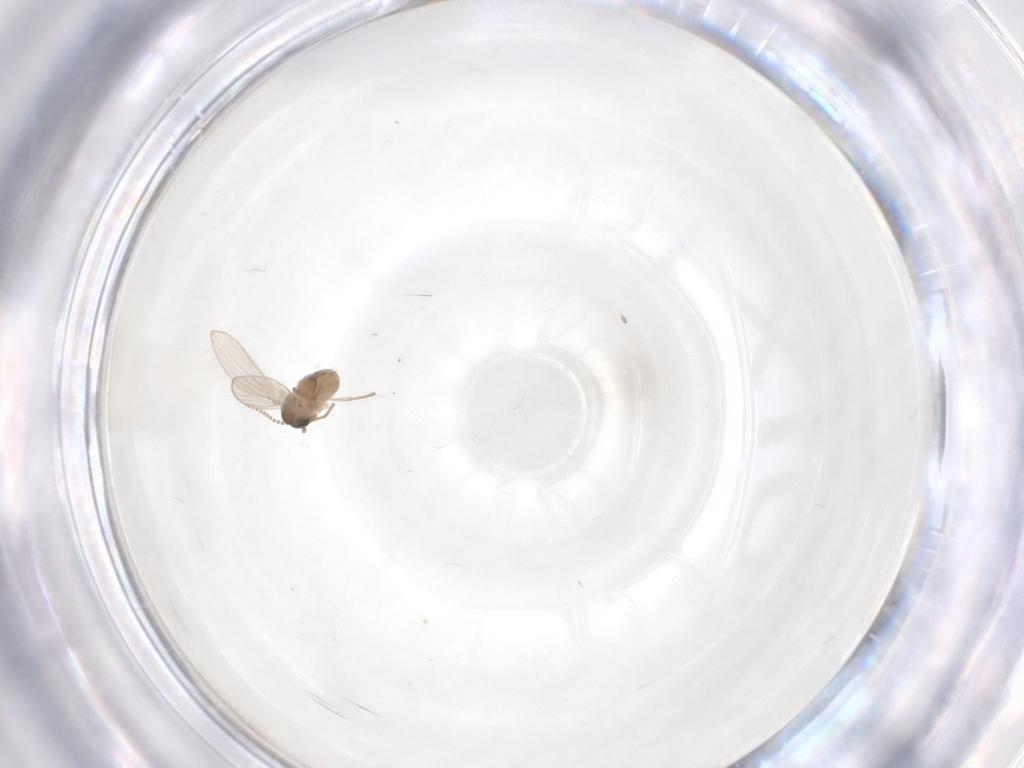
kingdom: Animalia
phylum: Arthropoda
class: Insecta
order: Diptera
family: Psychodidae
